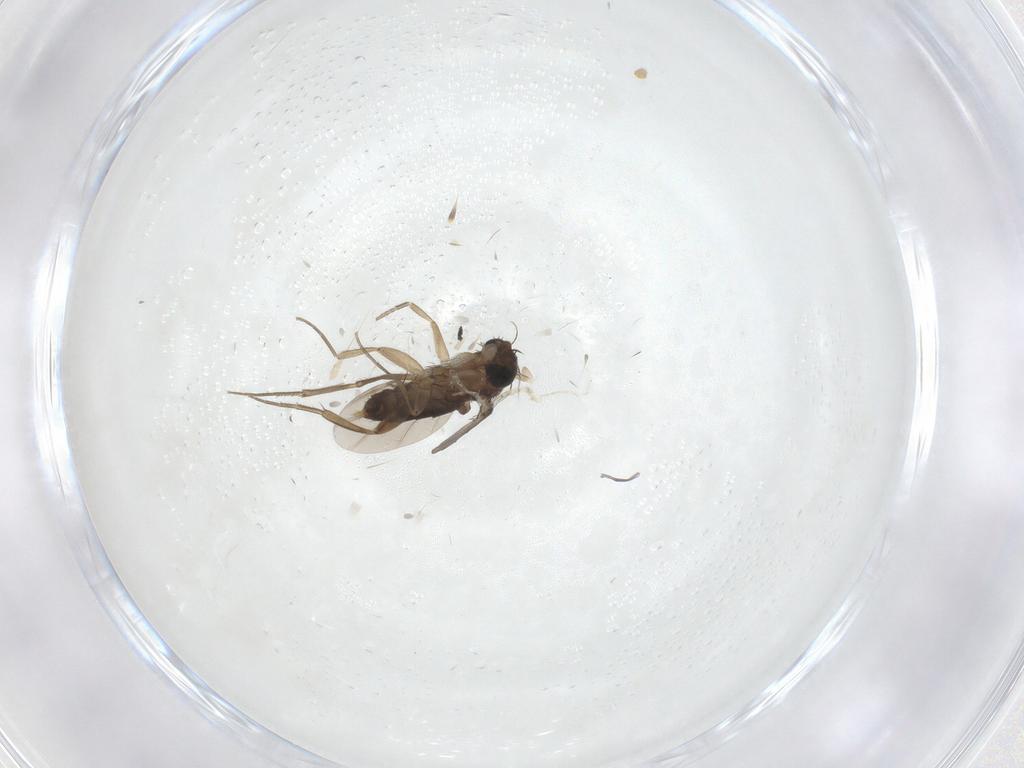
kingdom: Animalia
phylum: Arthropoda
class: Insecta
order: Diptera
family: Phoridae
